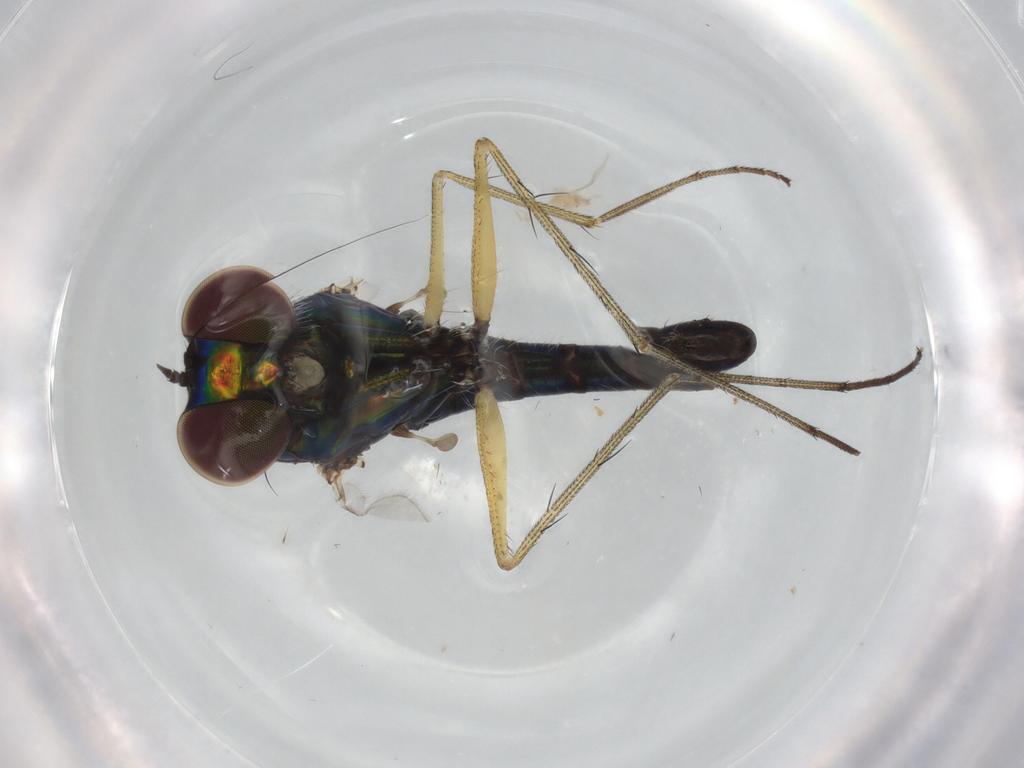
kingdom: Animalia
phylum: Arthropoda
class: Insecta
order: Diptera
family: Dolichopodidae
